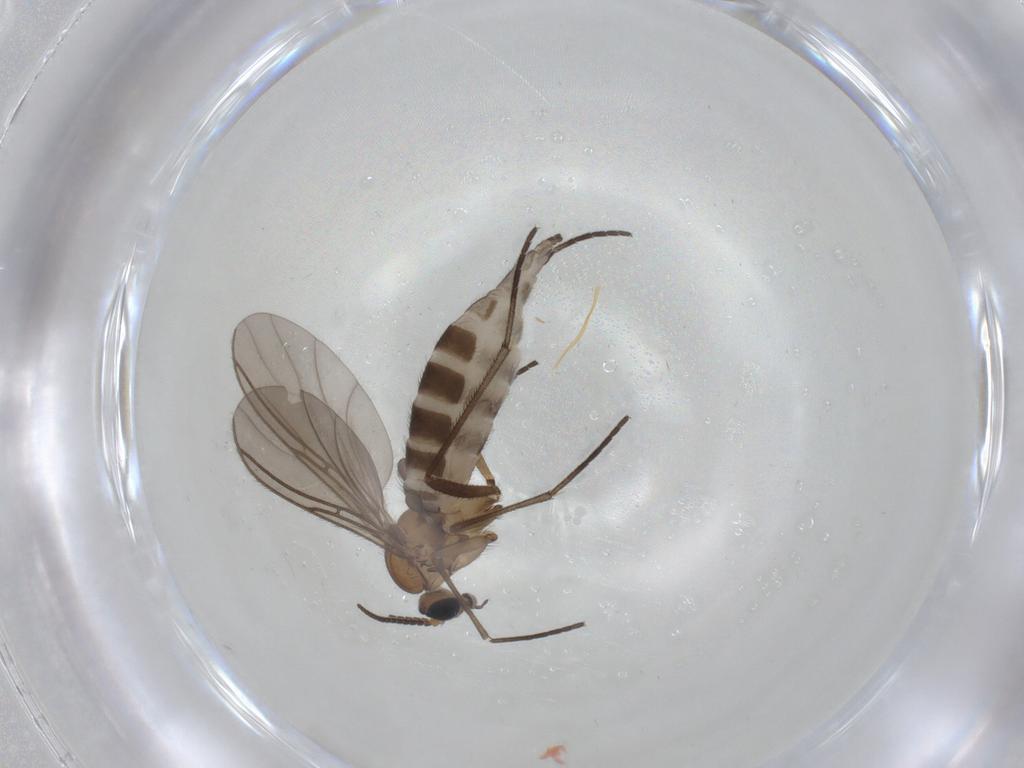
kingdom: Animalia
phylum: Arthropoda
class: Insecta
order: Diptera
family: Sciaridae
